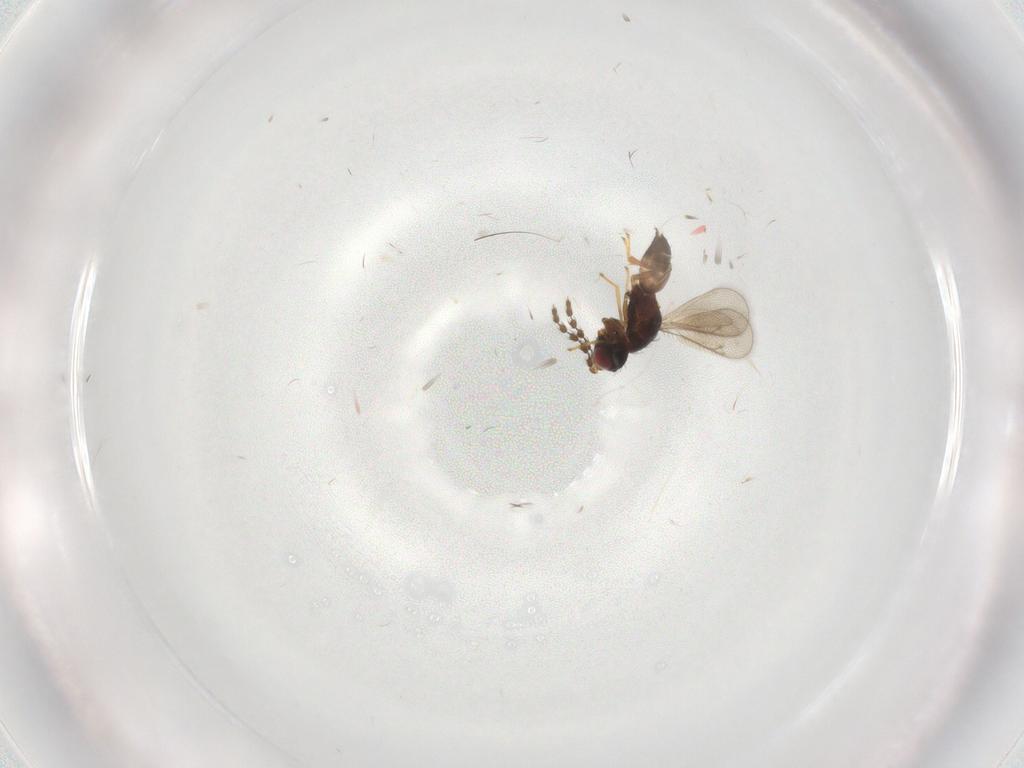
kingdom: Animalia
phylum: Arthropoda
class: Insecta
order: Hymenoptera
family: Eulophidae
